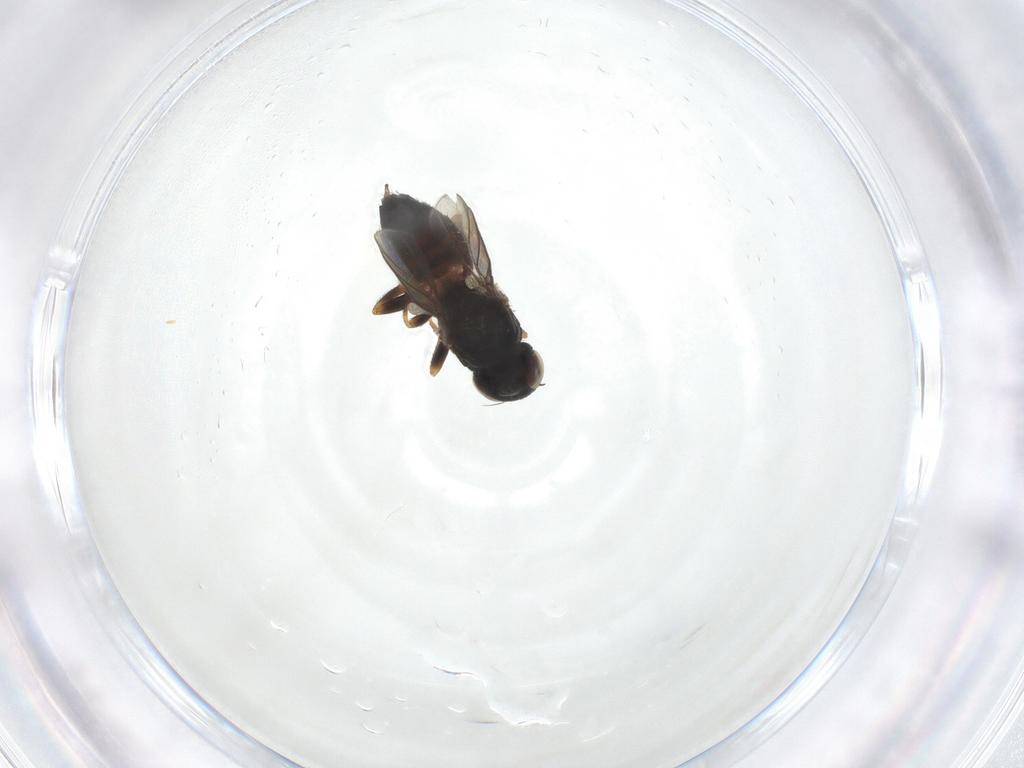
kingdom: Animalia
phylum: Arthropoda
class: Insecta
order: Diptera
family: Chloropidae
